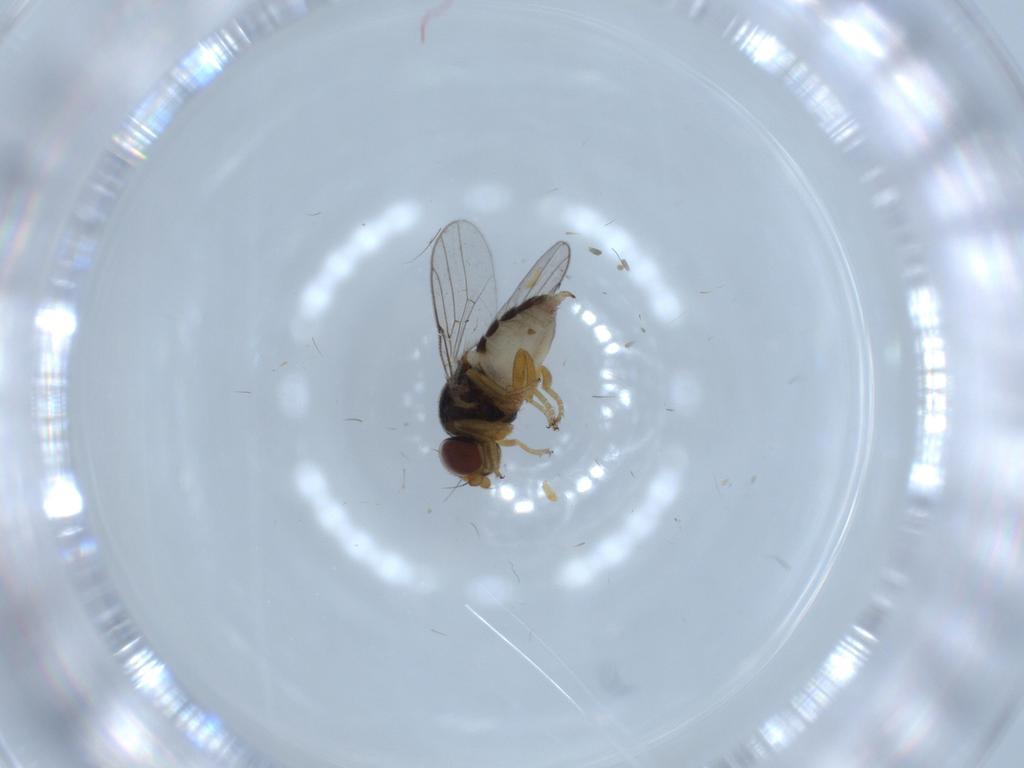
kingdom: Animalia
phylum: Arthropoda
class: Insecta
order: Diptera
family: Chloropidae
